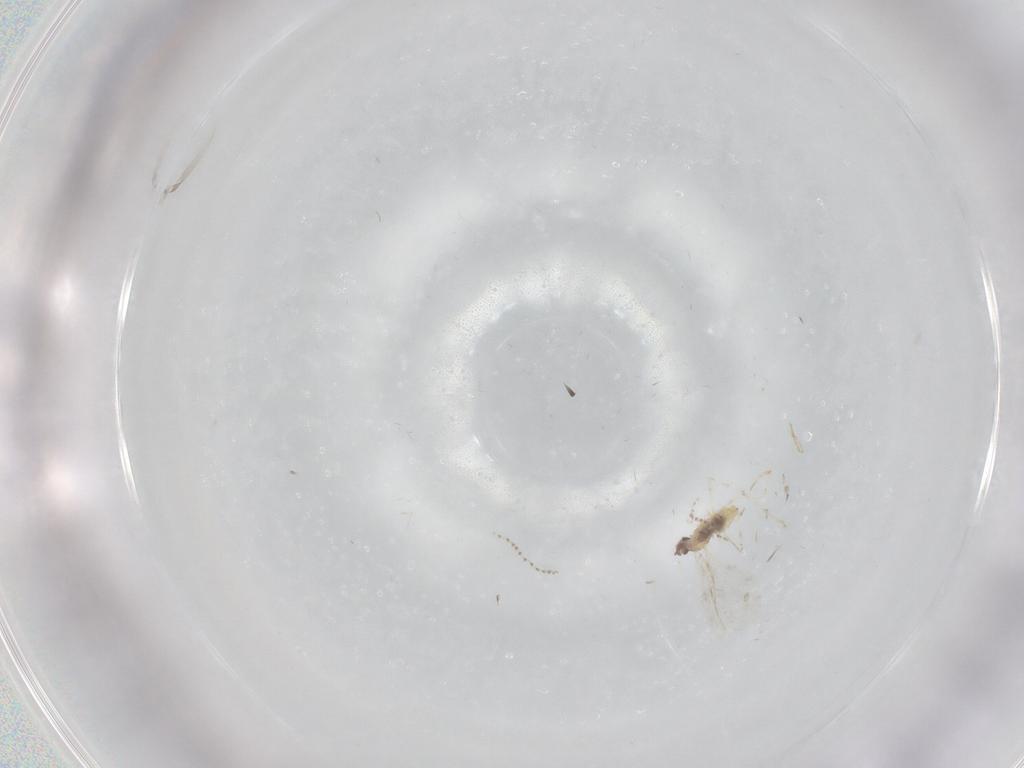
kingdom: Animalia
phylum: Arthropoda
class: Insecta
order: Diptera
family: Cecidomyiidae
